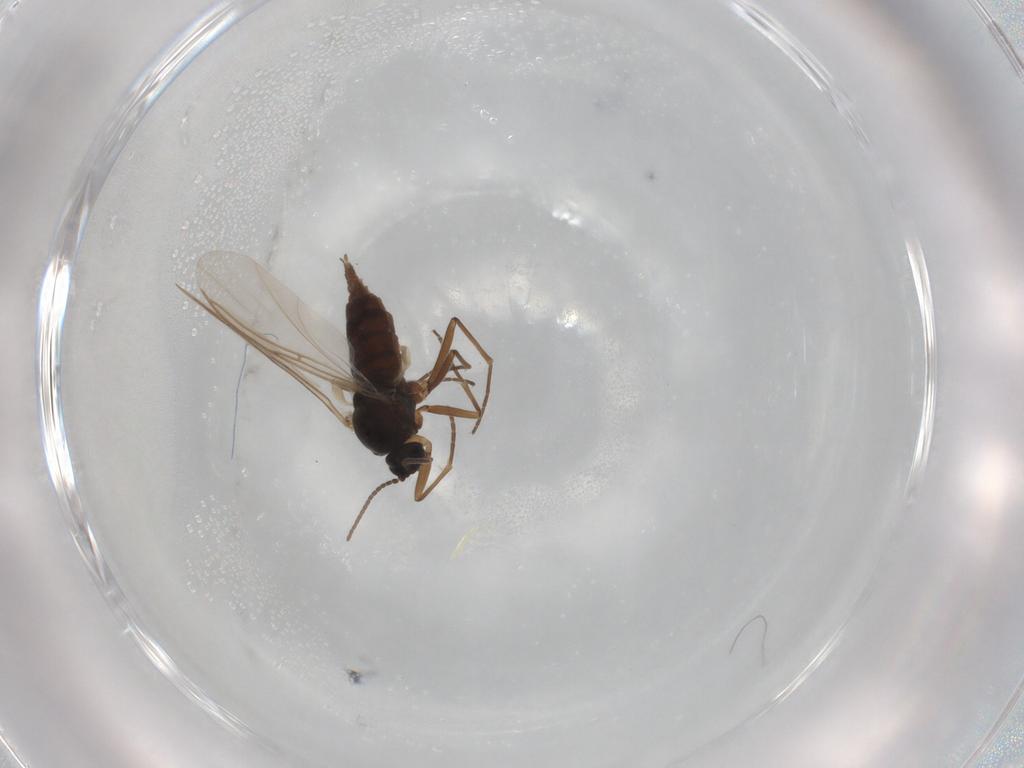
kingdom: Animalia
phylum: Arthropoda
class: Insecta
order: Diptera
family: Sciaridae
